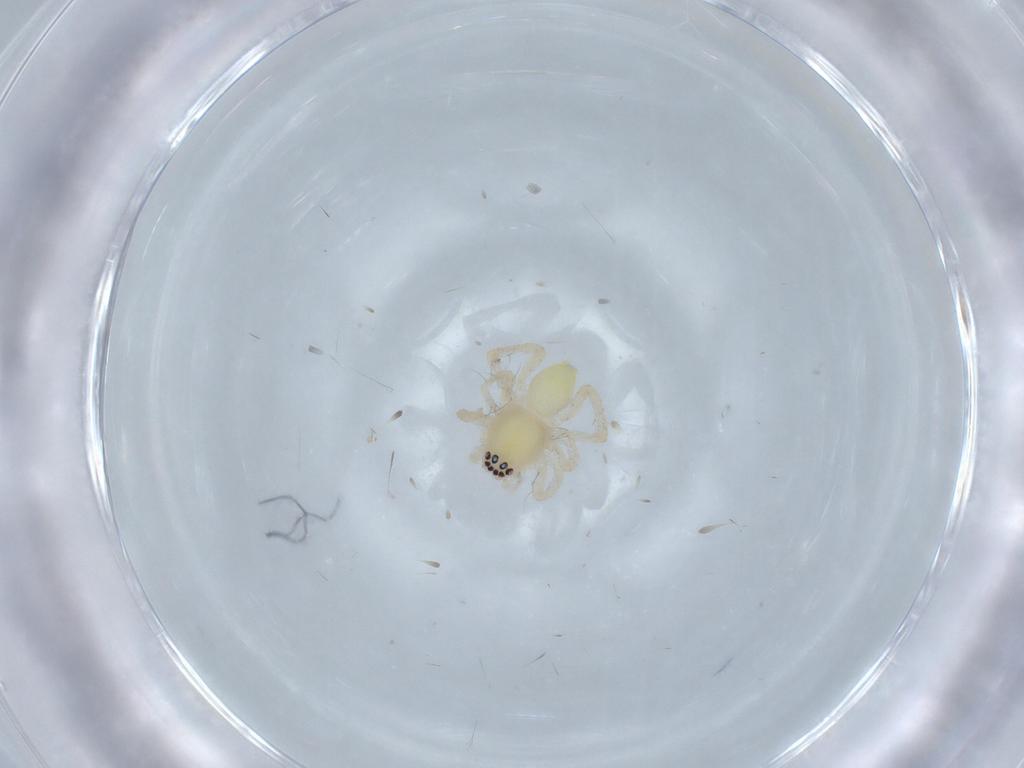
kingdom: Animalia
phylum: Arthropoda
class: Arachnida
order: Araneae
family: Anyphaenidae
